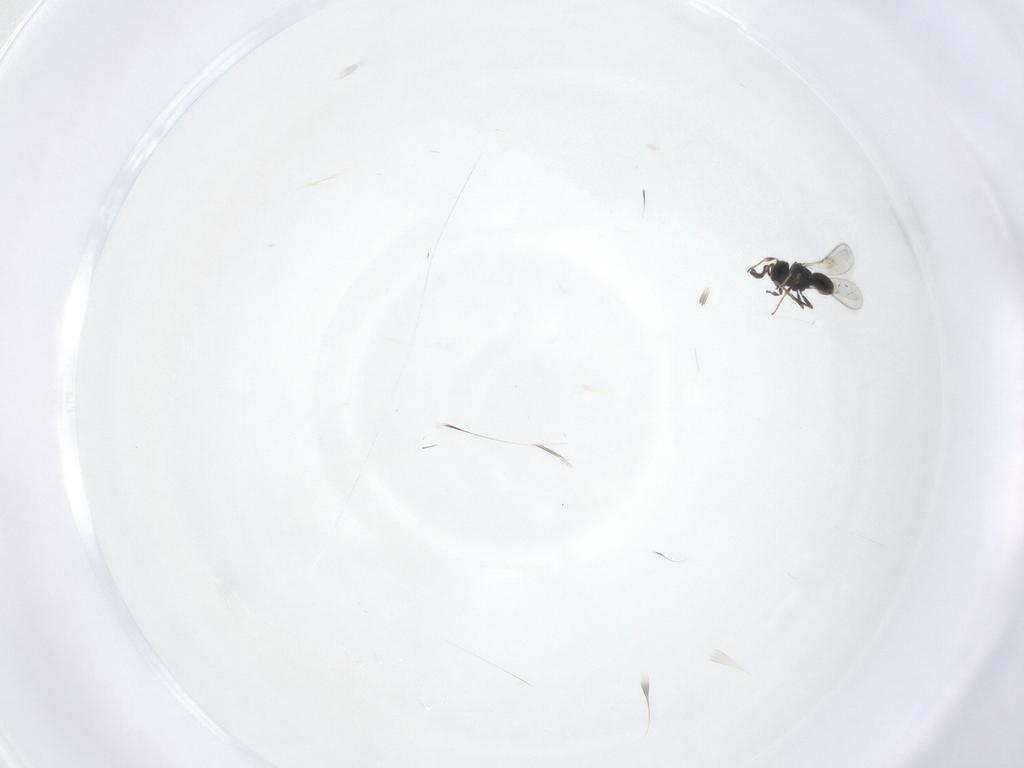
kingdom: Animalia
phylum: Arthropoda
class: Insecta
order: Hymenoptera
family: Scelionidae
